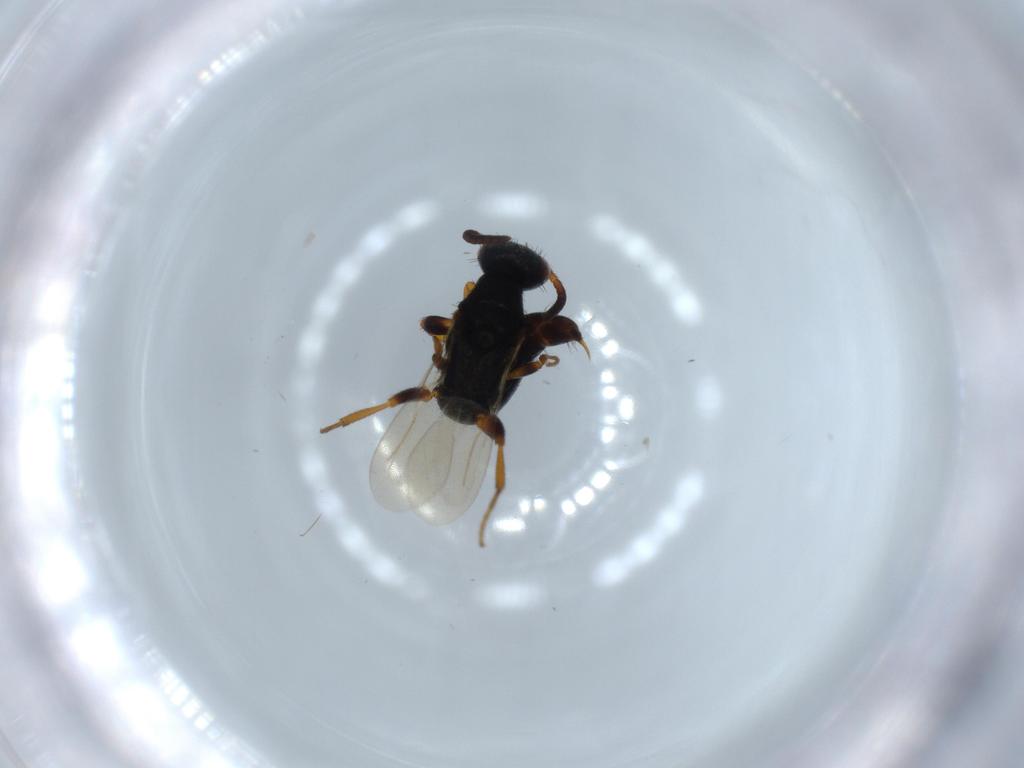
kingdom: Animalia
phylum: Arthropoda
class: Insecta
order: Hymenoptera
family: Bethylidae
